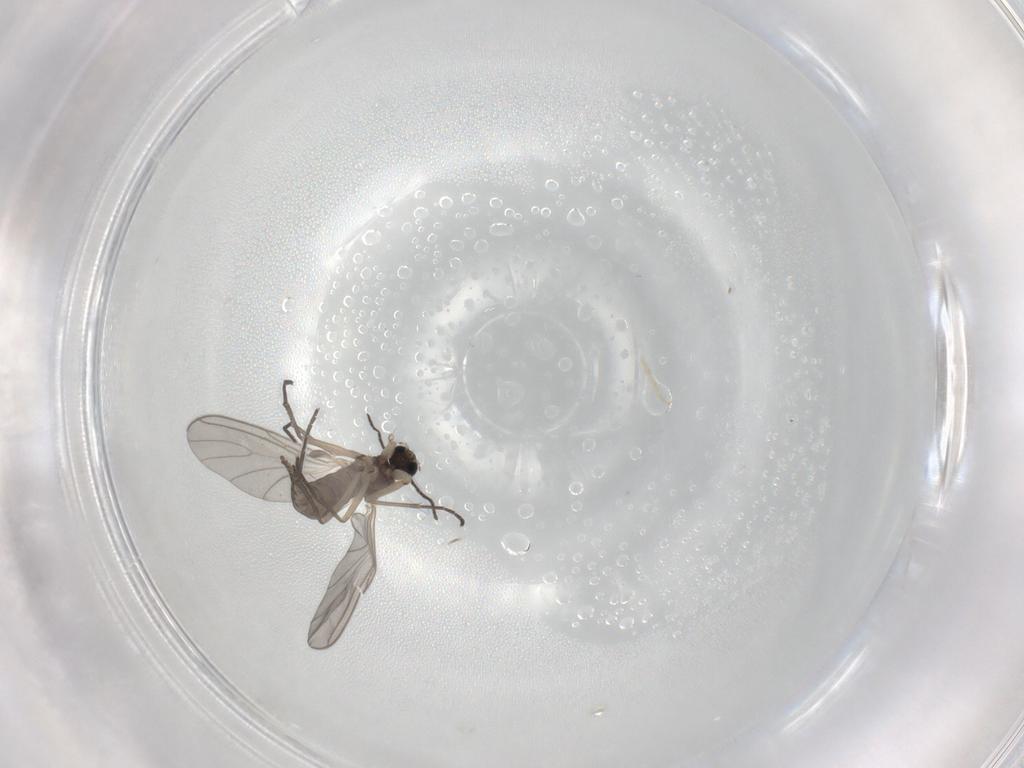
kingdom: Animalia
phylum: Arthropoda
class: Insecta
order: Diptera
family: Sciaridae
